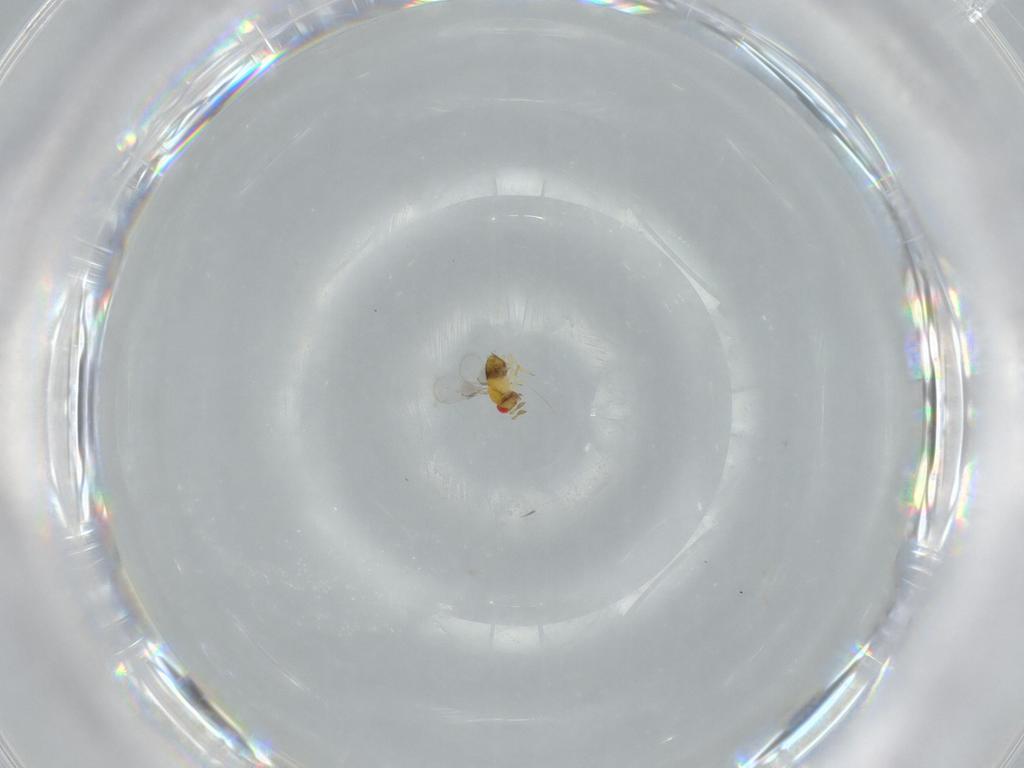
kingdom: Animalia
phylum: Arthropoda
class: Insecta
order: Hymenoptera
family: Trichogrammatidae
